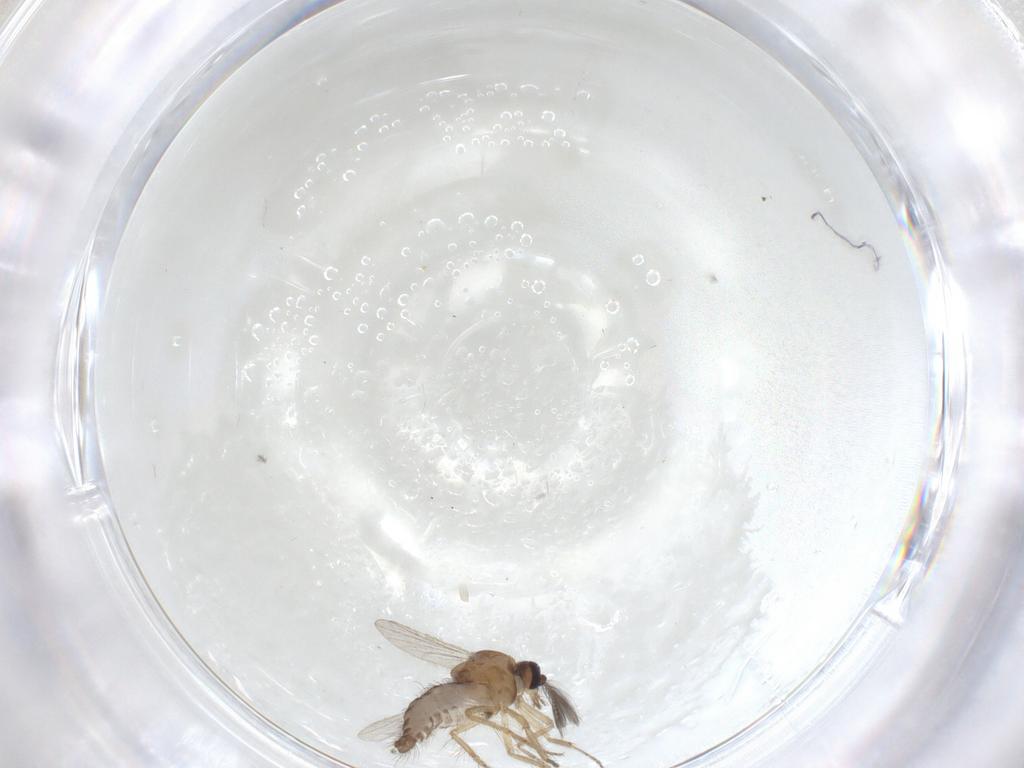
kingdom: Animalia
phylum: Arthropoda
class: Insecta
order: Diptera
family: Ceratopogonidae
